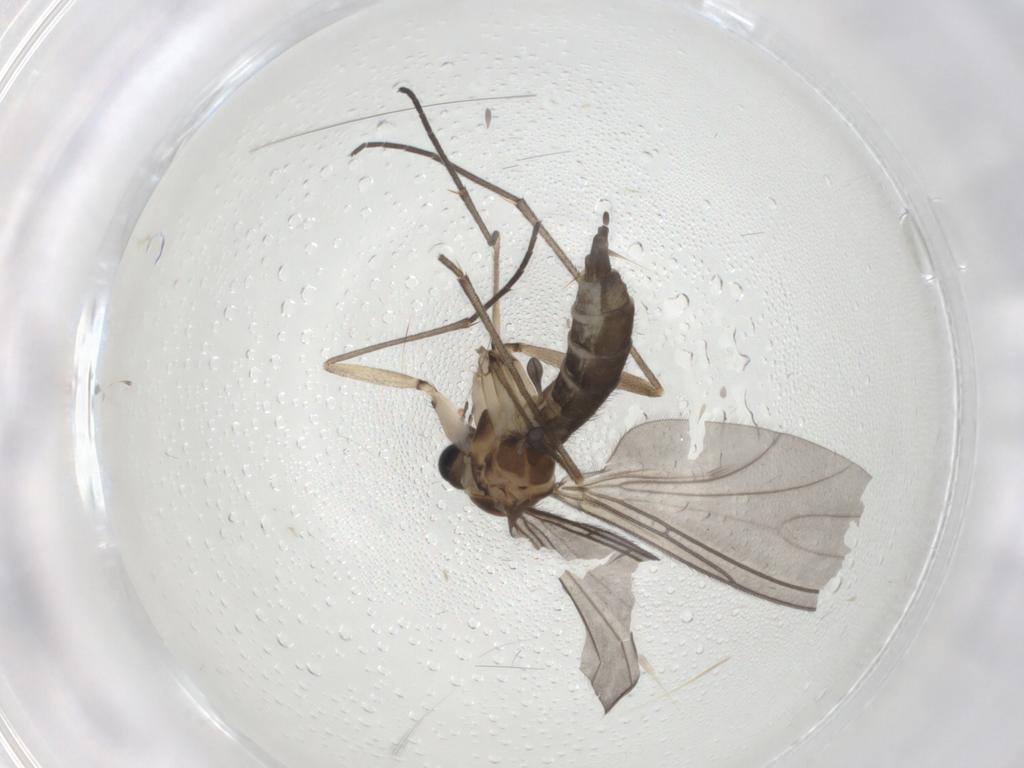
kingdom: Animalia
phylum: Arthropoda
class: Insecta
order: Diptera
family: Sciaridae
